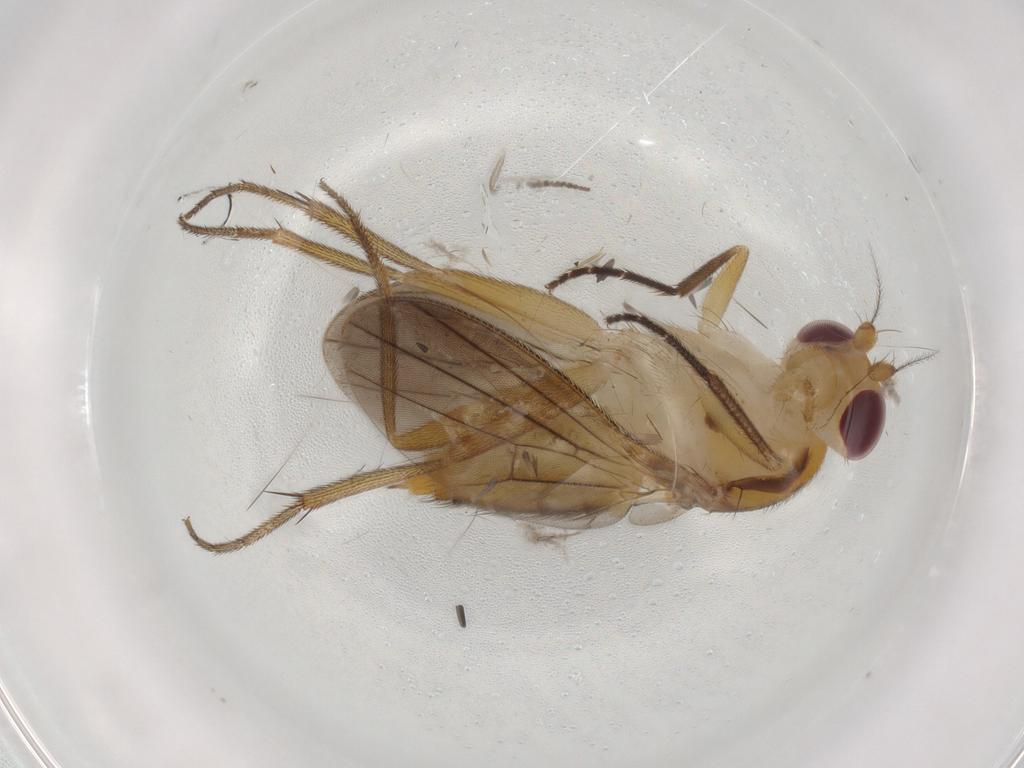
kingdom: Animalia
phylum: Arthropoda
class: Insecta
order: Diptera
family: Clusiidae
